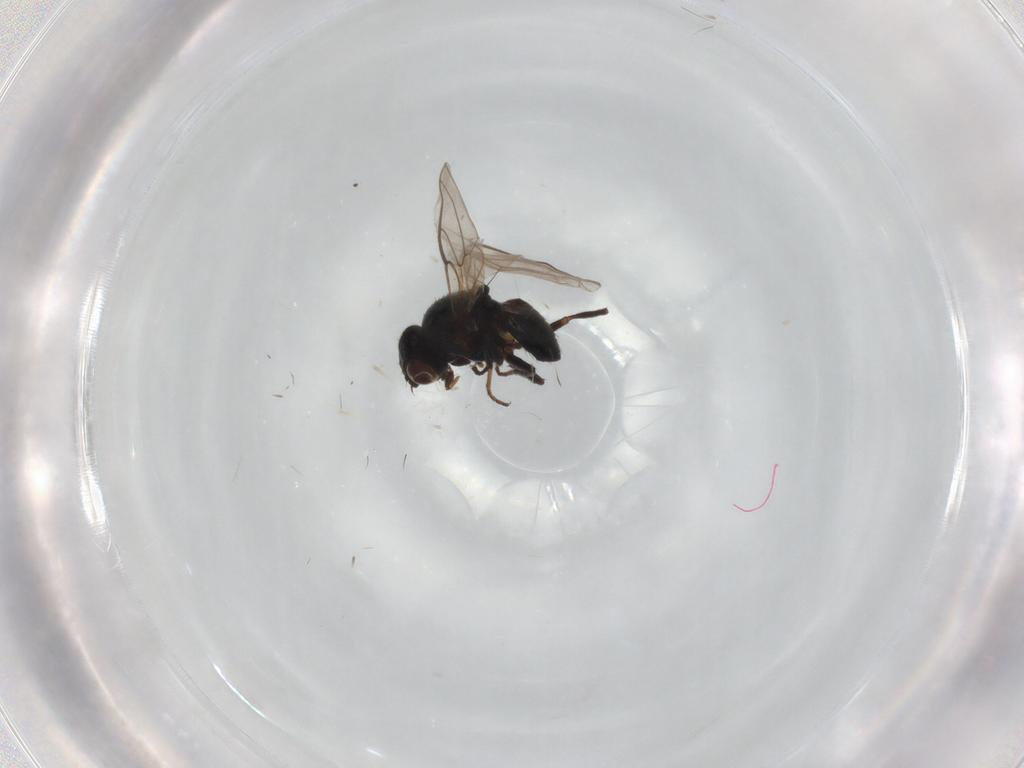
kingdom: Animalia
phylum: Arthropoda
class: Insecta
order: Diptera
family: Chloropidae
